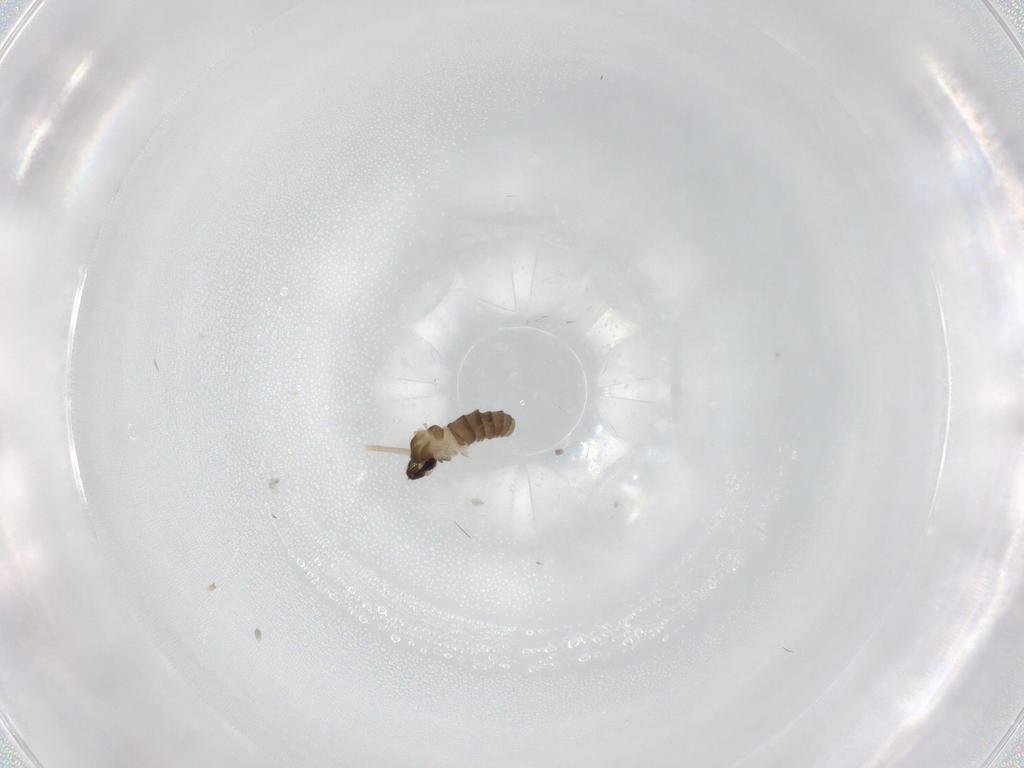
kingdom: Animalia
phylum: Arthropoda
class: Insecta
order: Diptera
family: Cecidomyiidae
